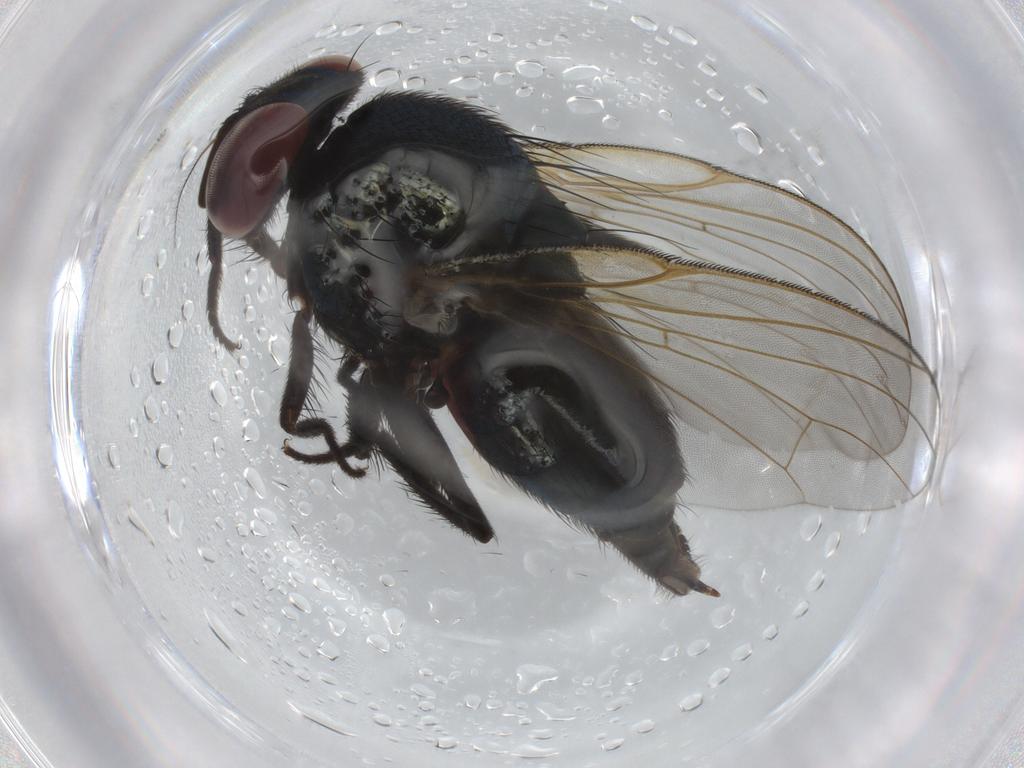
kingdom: Animalia
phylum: Arthropoda
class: Insecta
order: Diptera
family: Lonchaeidae
